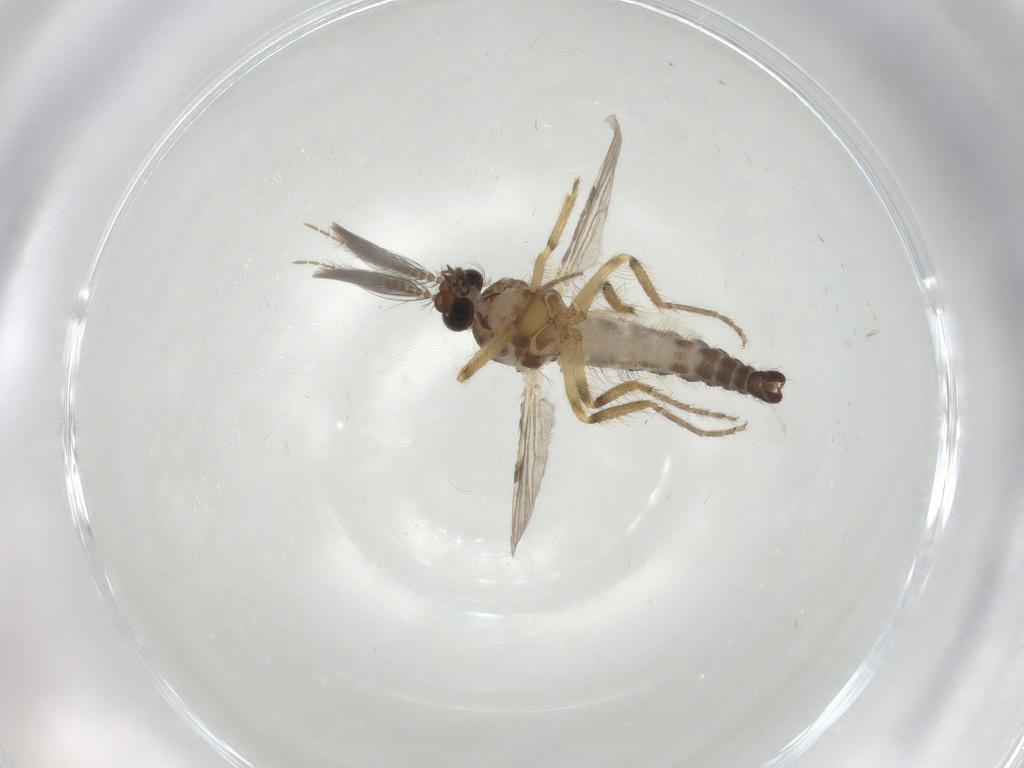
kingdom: Animalia
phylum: Arthropoda
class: Insecta
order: Diptera
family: Ceratopogonidae
